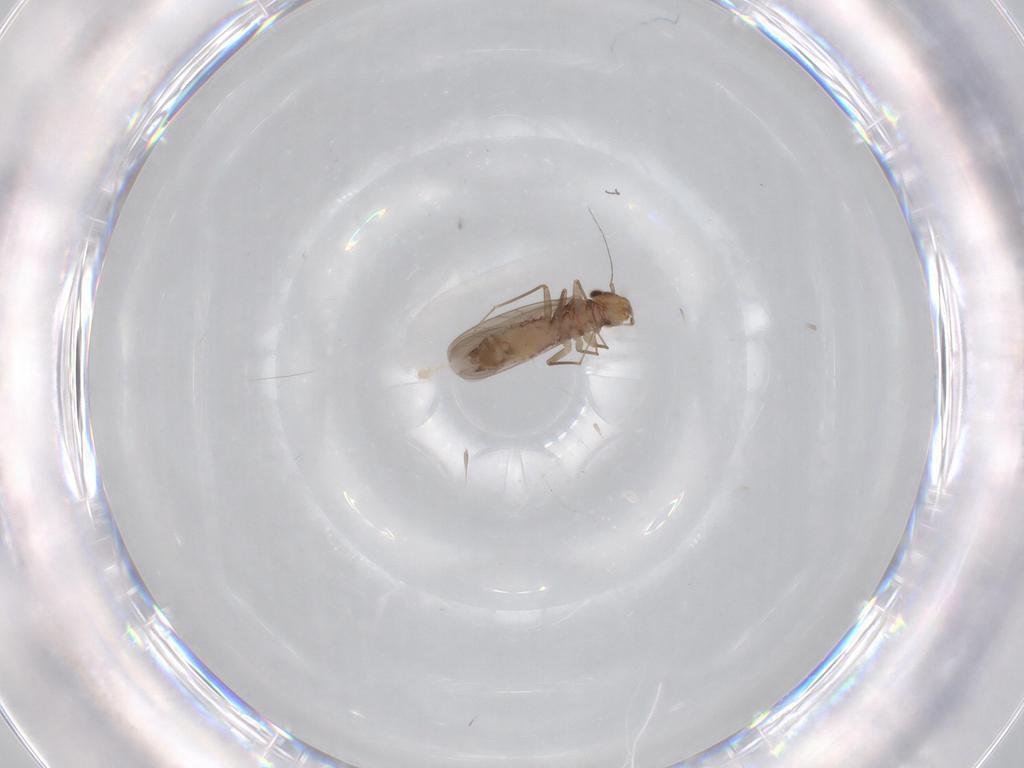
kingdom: Animalia
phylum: Arthropoda
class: Insecta
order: Psocodea
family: Lepidopsocidae
